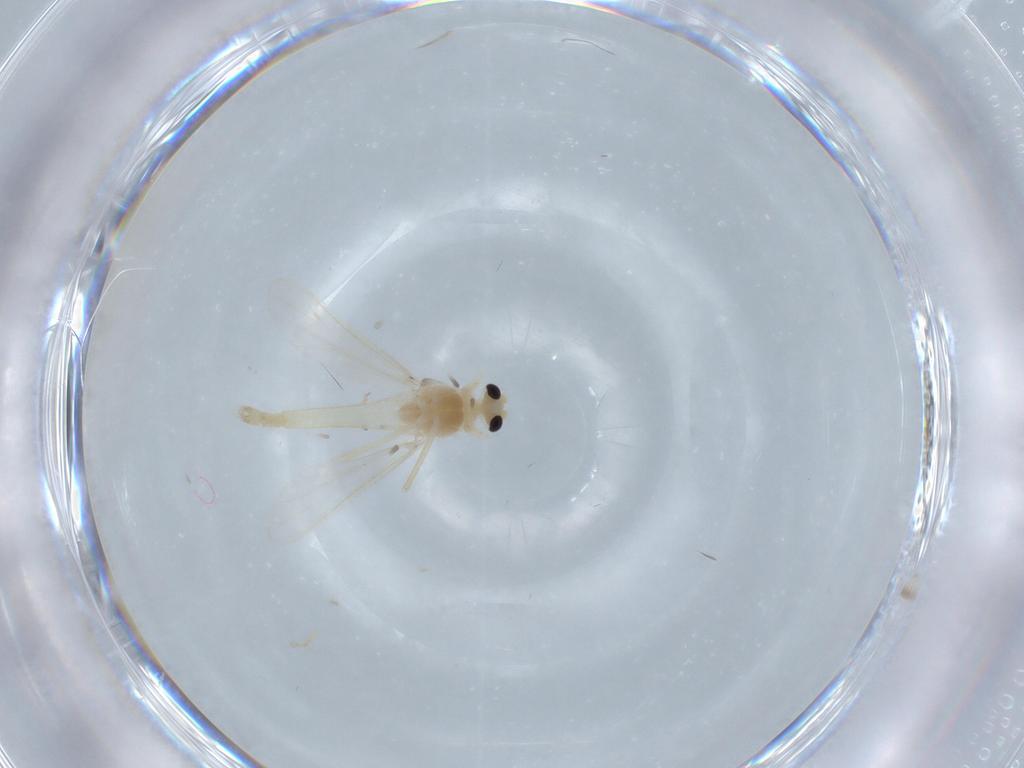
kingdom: Animalia
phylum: Arthropoda
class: Insecta
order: Diptera
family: Chironomidae
